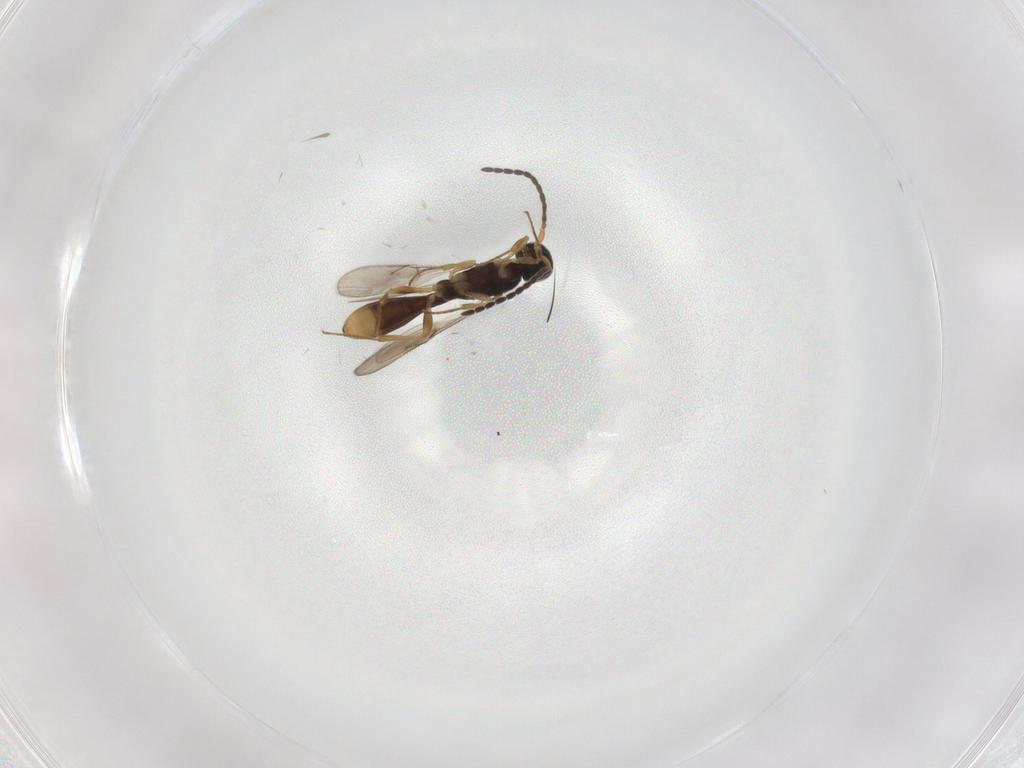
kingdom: Animalia
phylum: Arthropoda
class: Insecta
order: Hymenoptera
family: Scelionidae
